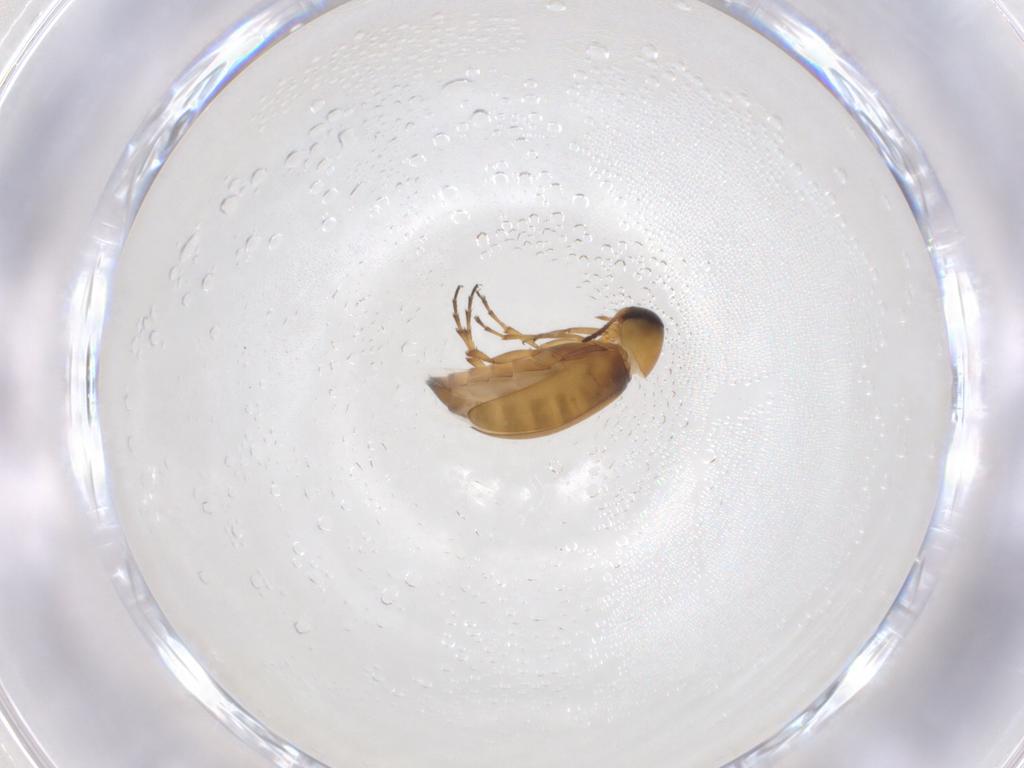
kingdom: Animalia
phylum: Arthropoda
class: Insecta
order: Coleoptera
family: Scraptiidae
